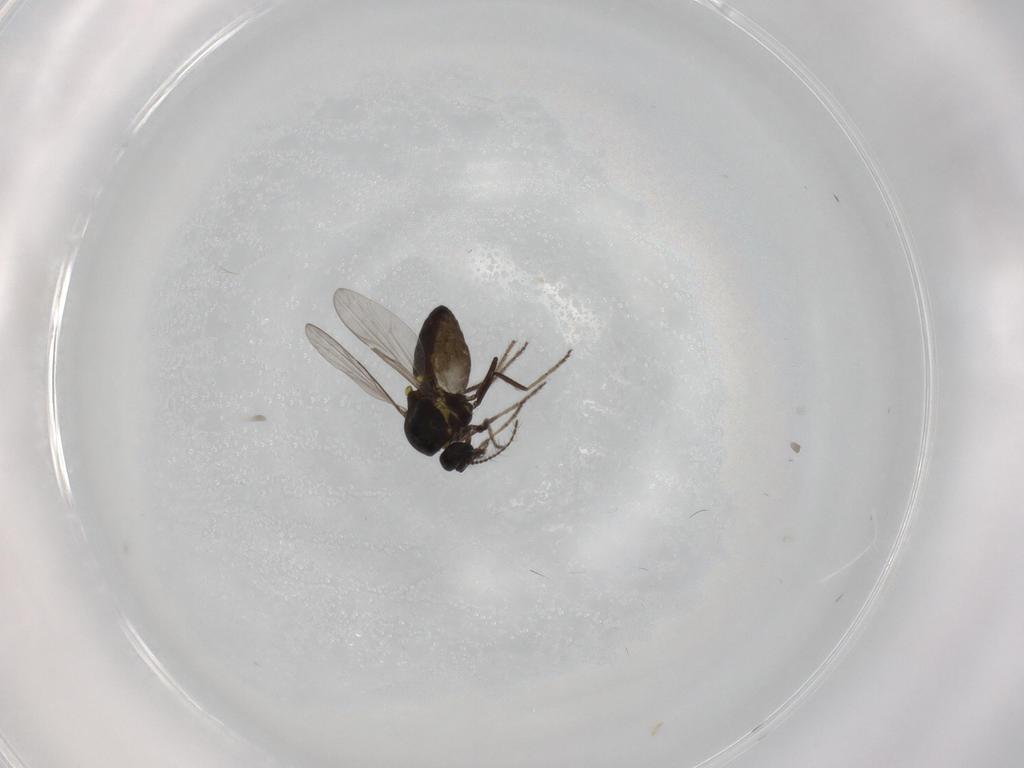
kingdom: Animalia
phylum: Arthropoda
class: Insecta
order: Diptera
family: Ceratopogonidae
